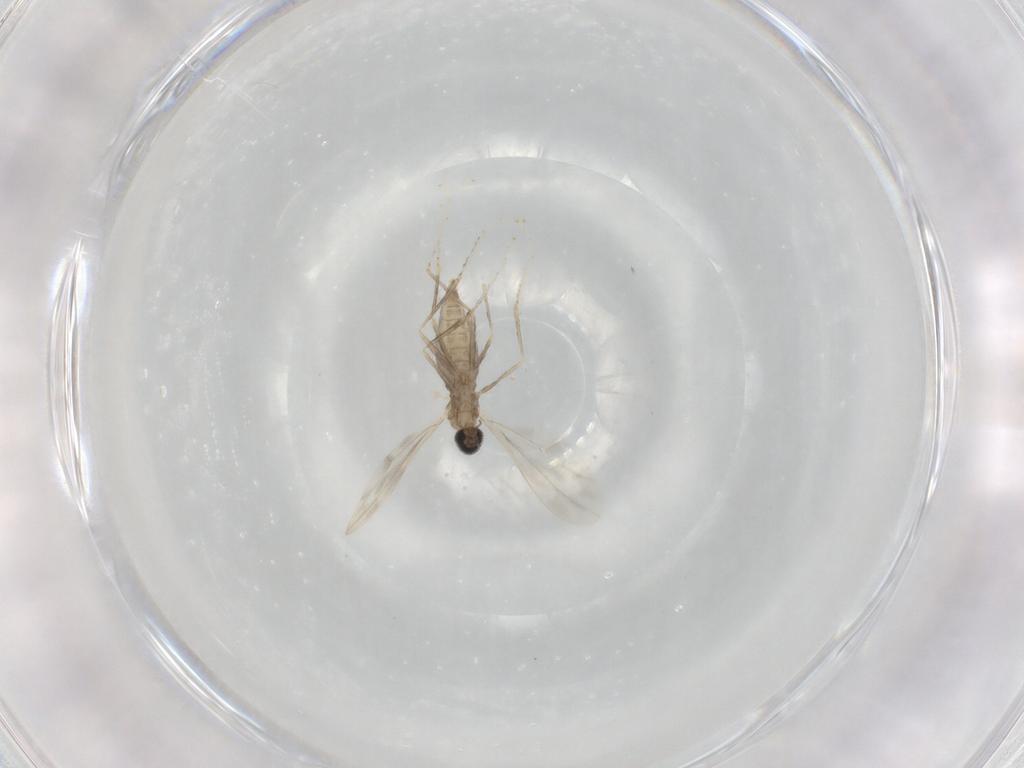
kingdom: Animalia
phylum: Arthropoda
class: Insecta
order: Diptera
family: Cecidomyiidae
